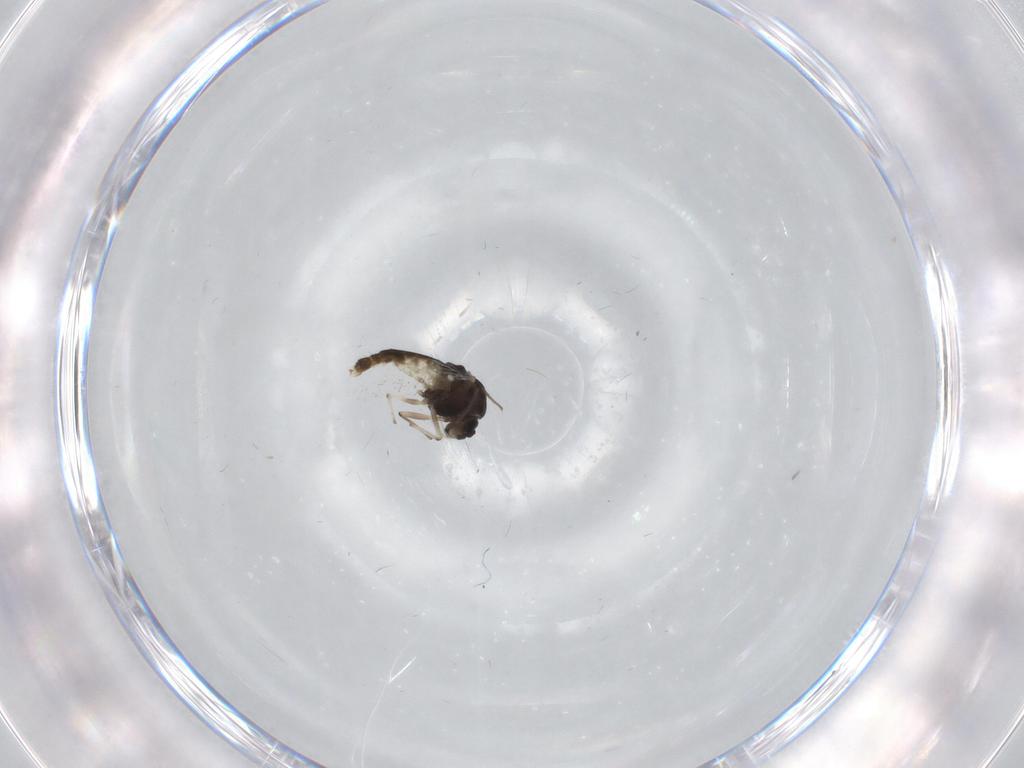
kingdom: Animalia
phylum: Arthropoda
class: Insecta
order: Diptera
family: Chironomidae
